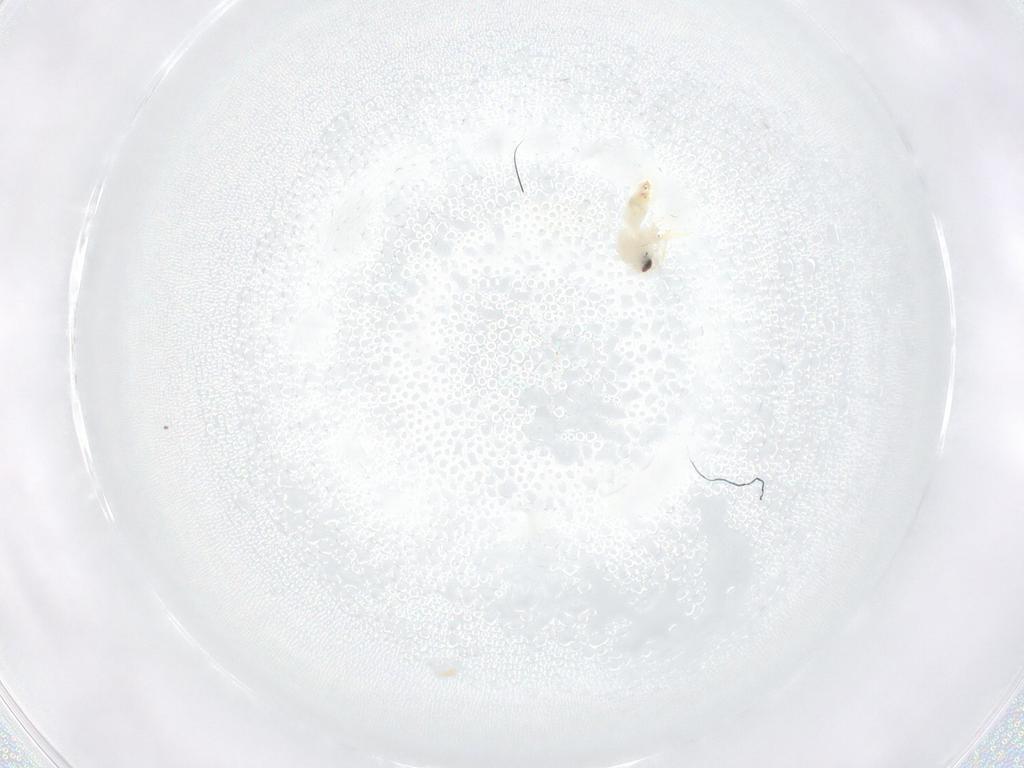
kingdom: Animalia
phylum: Arthropoda
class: Insecta
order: Hemiptera
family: Aleyrodidae
